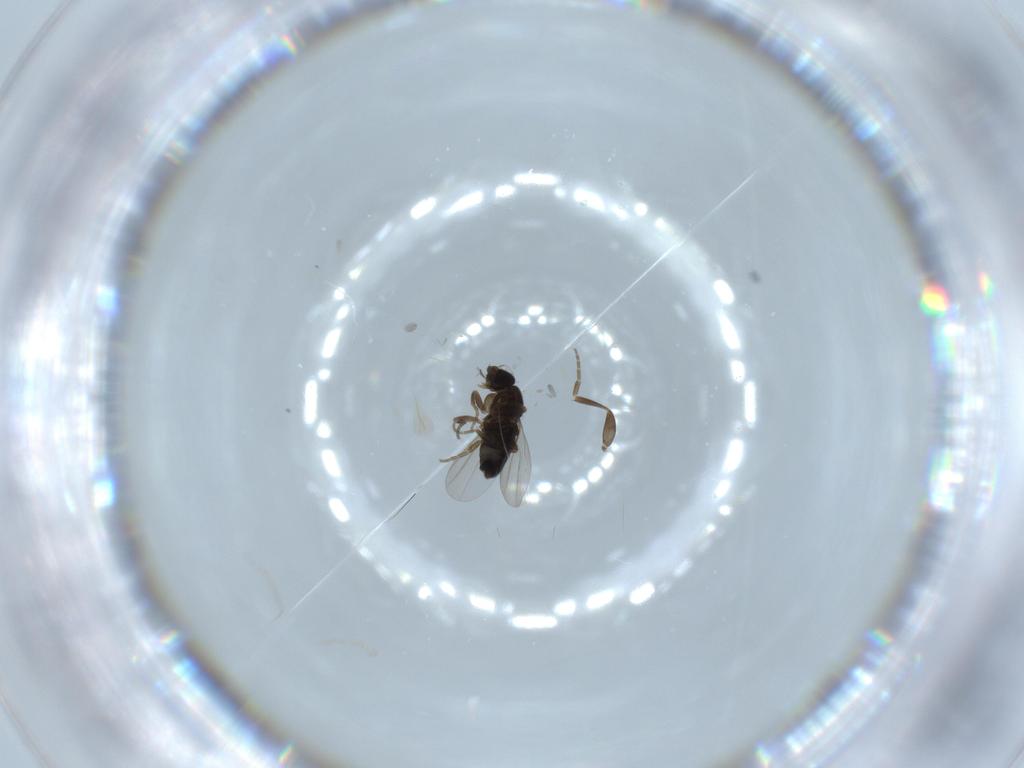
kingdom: Animalia
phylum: Arthropoda
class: Insecta
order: Diptera
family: Phoridae
